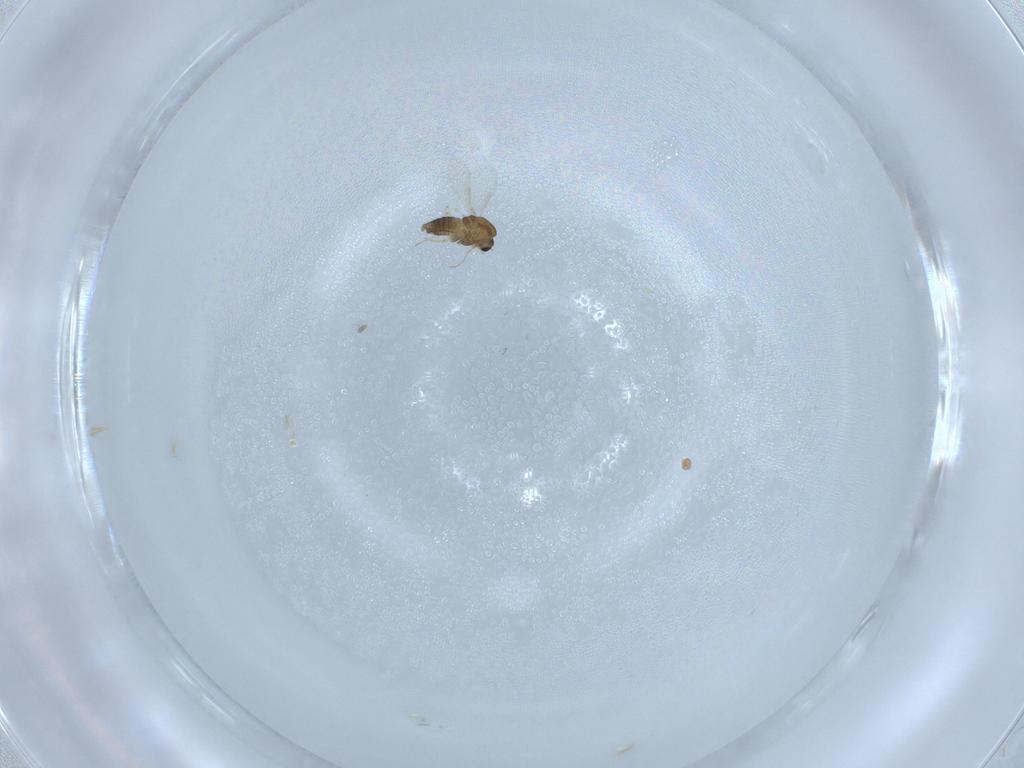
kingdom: Animalia
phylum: Arthropoda
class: Insecta
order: Diptera
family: Chironomidae
